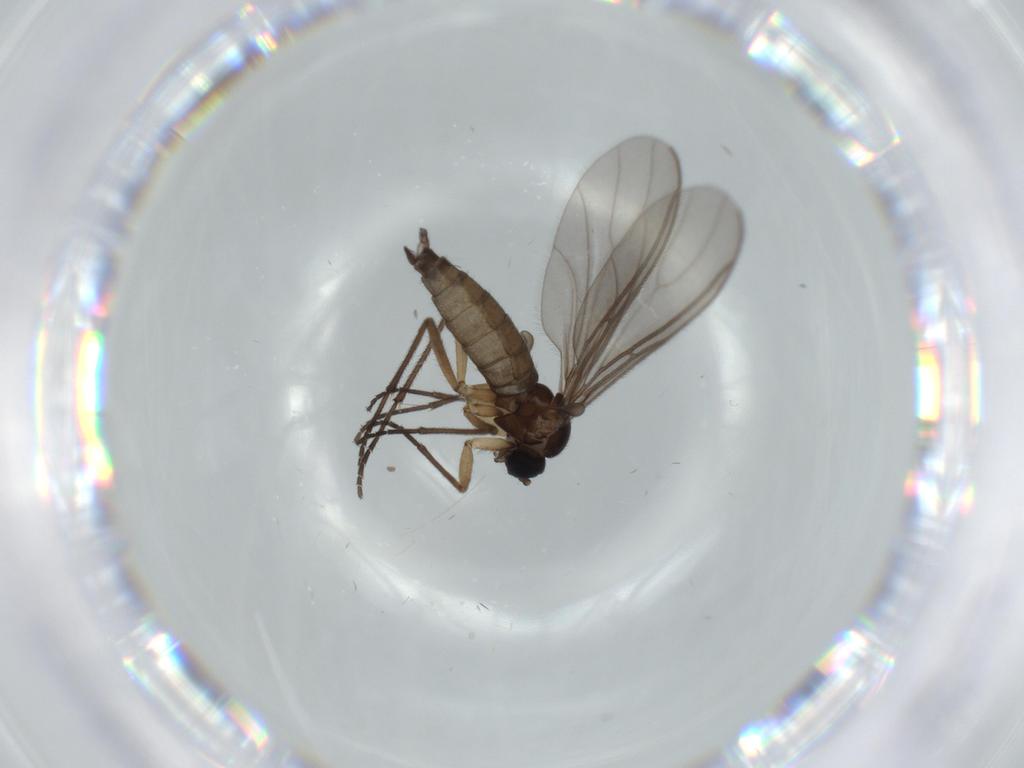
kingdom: Animalia
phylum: Arthropoda
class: Insecta
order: Diptera
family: Sciaridae
